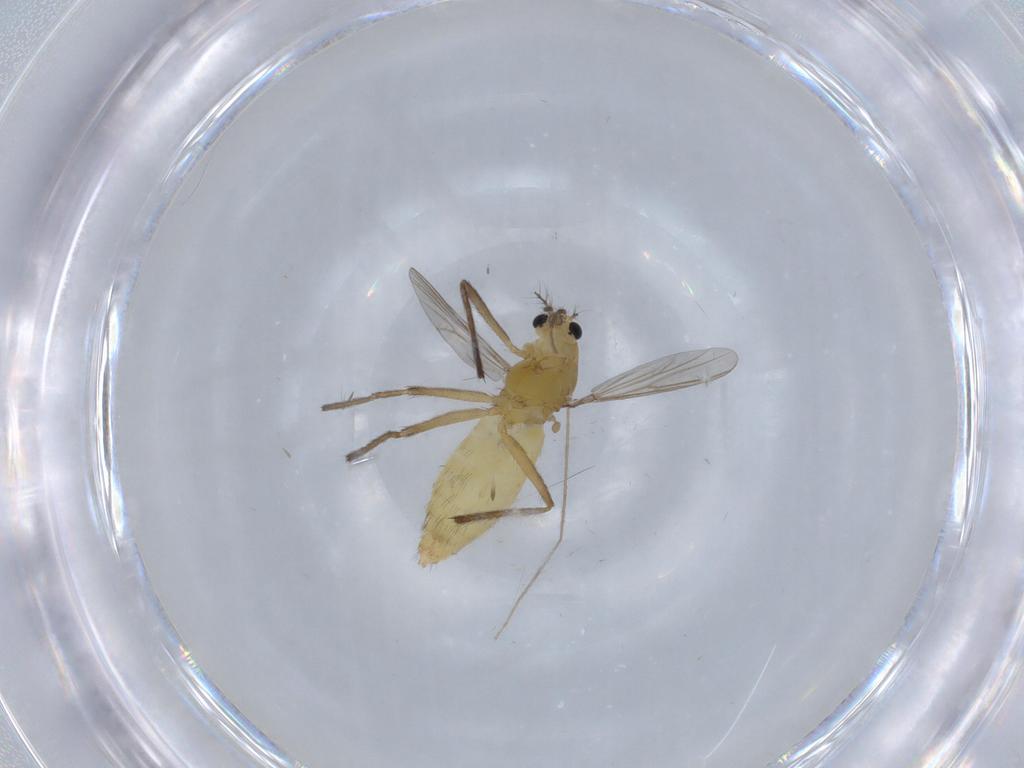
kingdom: Animalia
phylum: Arthropoda
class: Insecta
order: Diptera
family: Chironomidae
